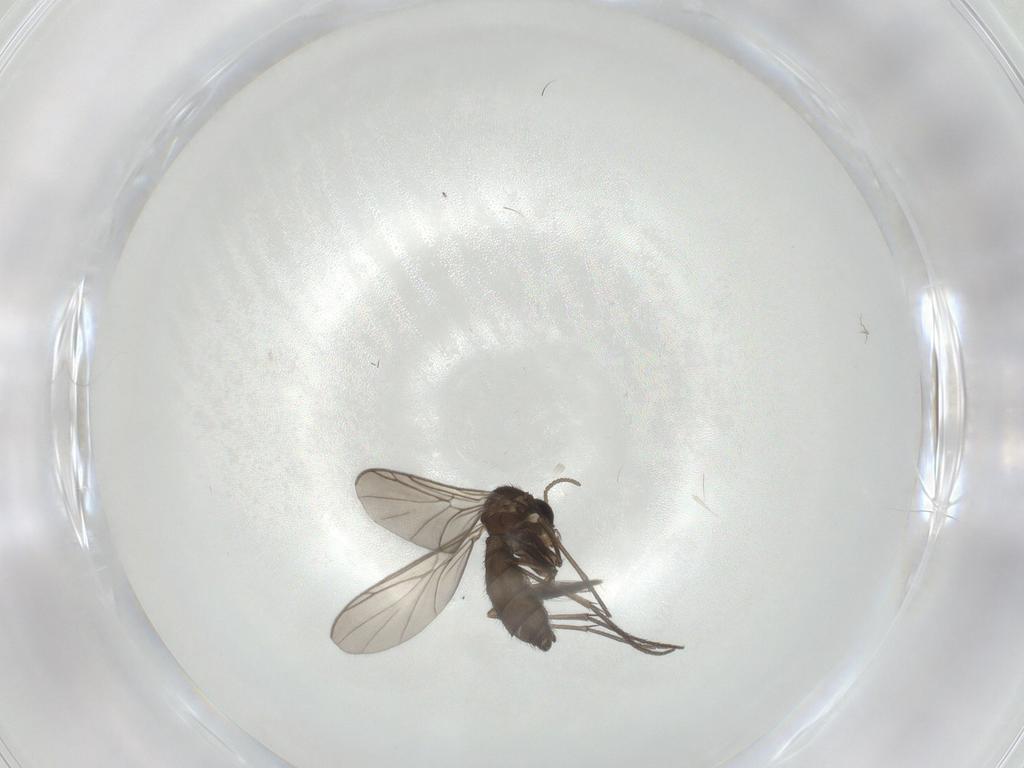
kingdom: Animalia
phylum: Arthropoda
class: Insecta
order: Diptera
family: Keroplatidae
